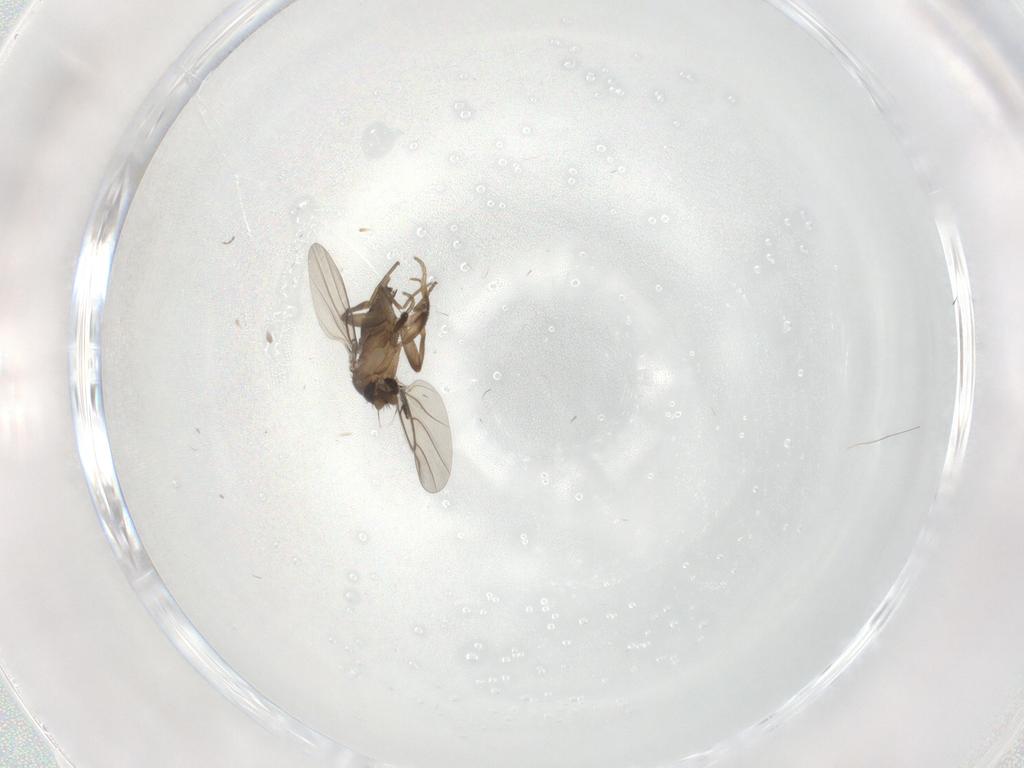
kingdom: Animalia
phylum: Arthropoda
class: Insecta
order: Diptera
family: Phoridae
